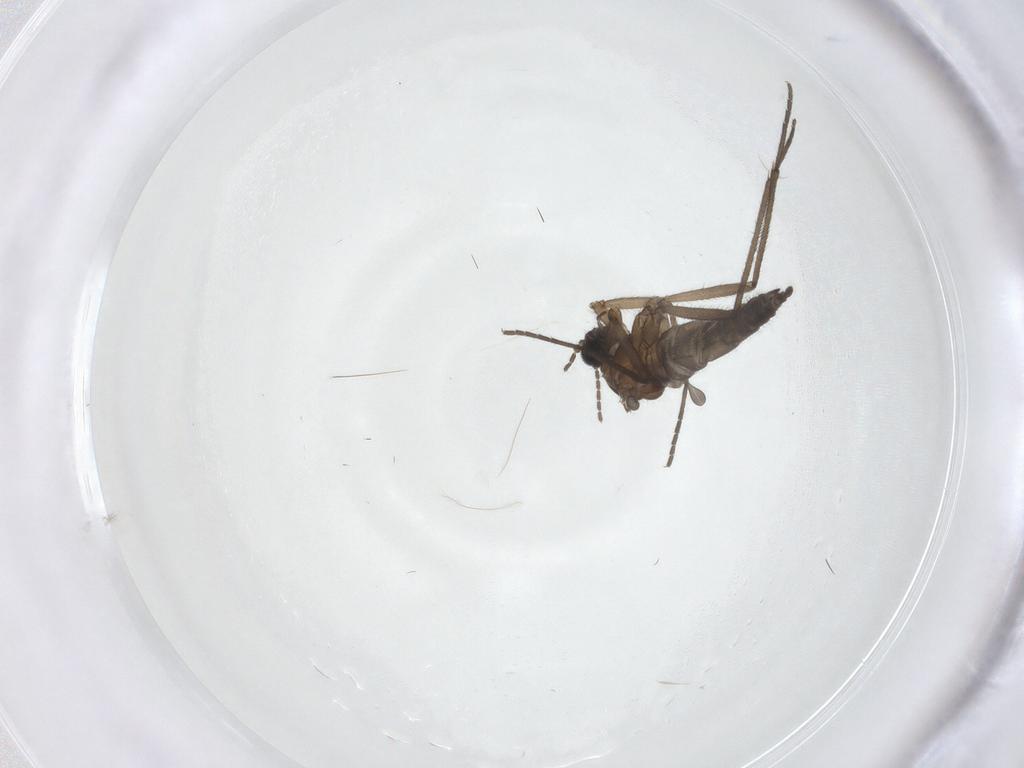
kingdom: Animalia
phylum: Arthropoda
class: Insecta
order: Diptera
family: Sciaridae
